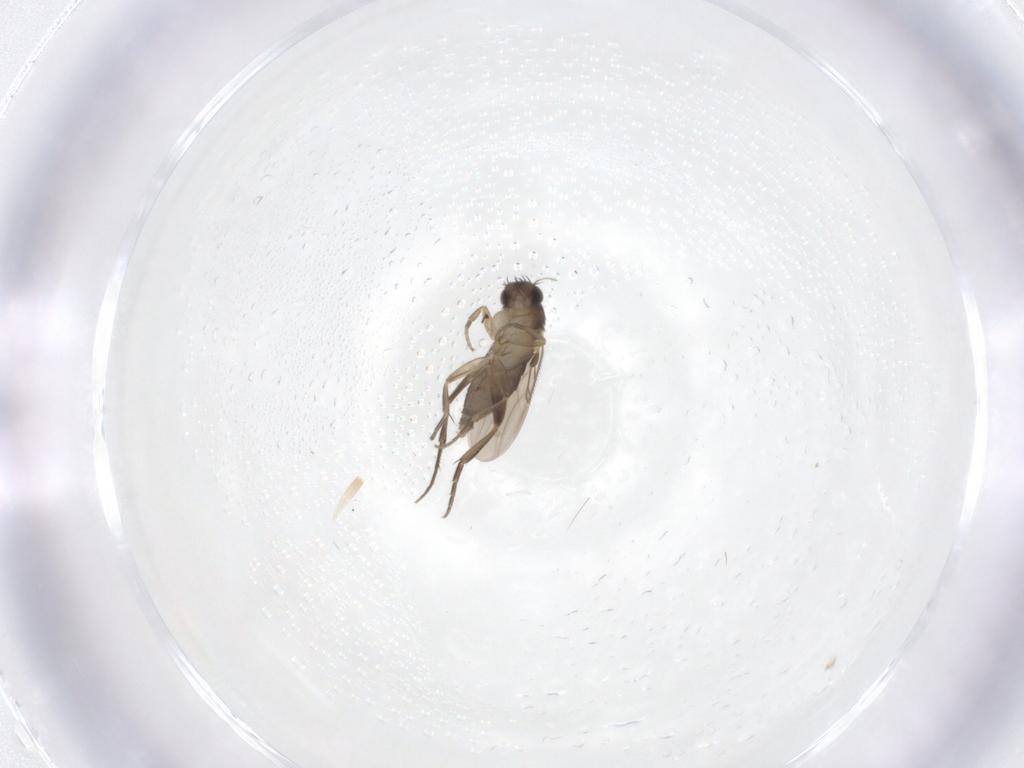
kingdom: Animalia
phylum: Arthropoda
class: Insecta
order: Diptera
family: Phoridae
